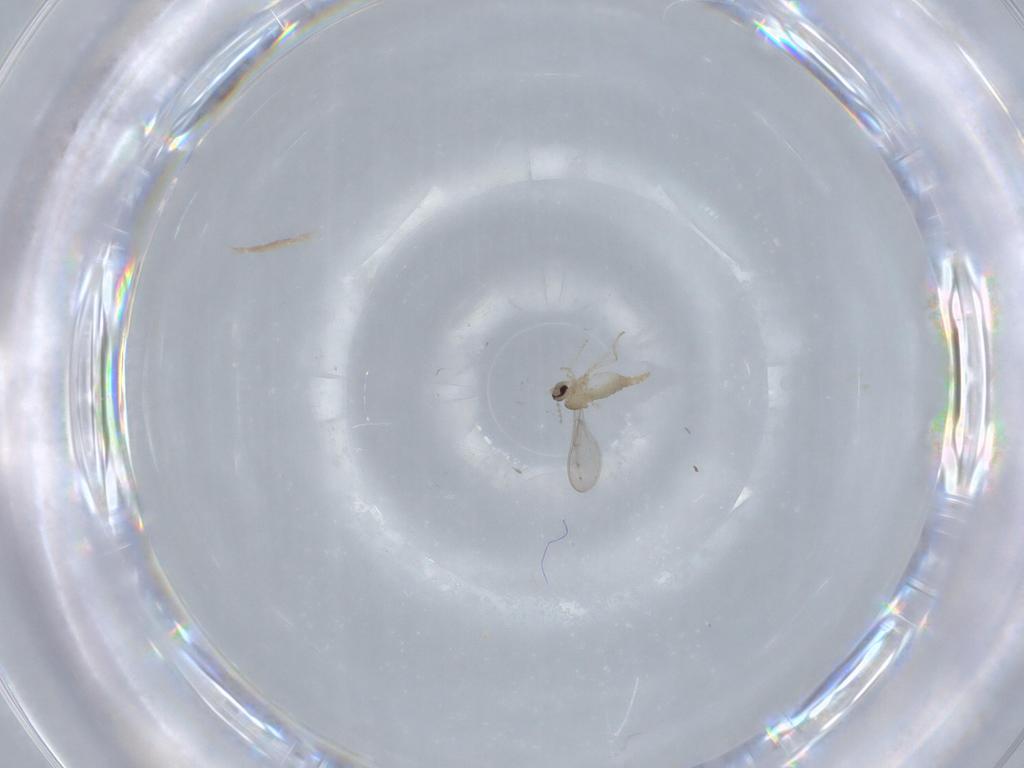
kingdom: Animalia
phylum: Arthropoda
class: Insecta
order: Diptera
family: Cecidomyiidae
